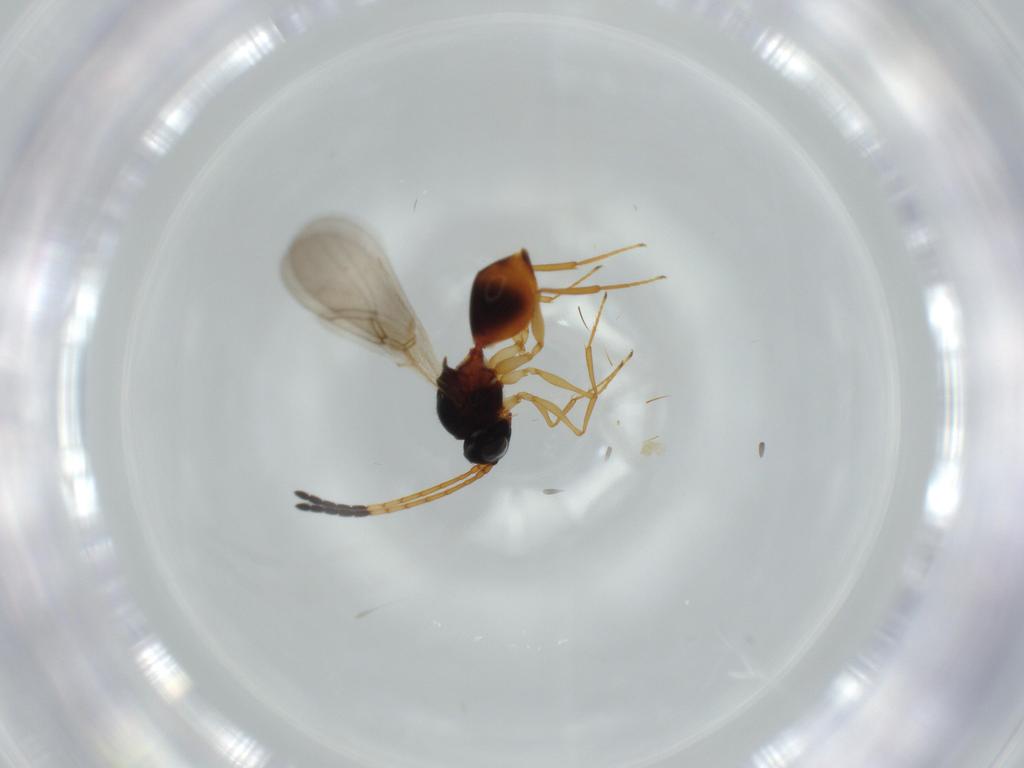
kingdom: Animalia
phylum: Arthropoda
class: Insecta
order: Hymenoptera
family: Figitidae
